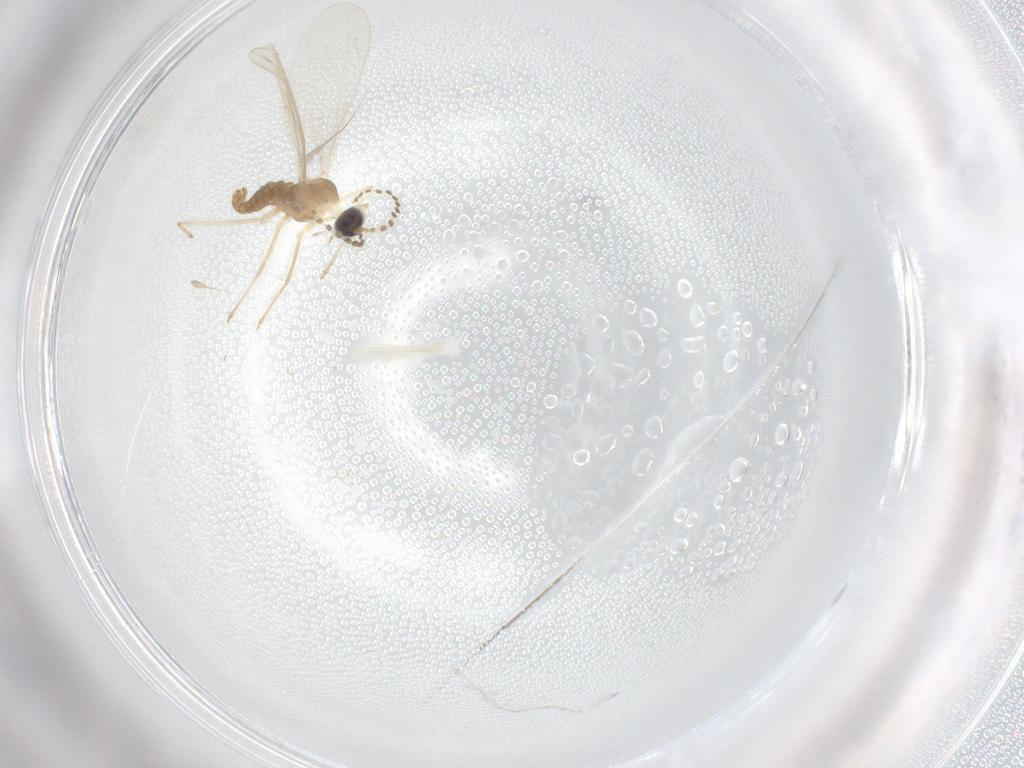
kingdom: Animalia
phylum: Arthropoda
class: Insecta
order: Diptera
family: Cecidomyiidae
